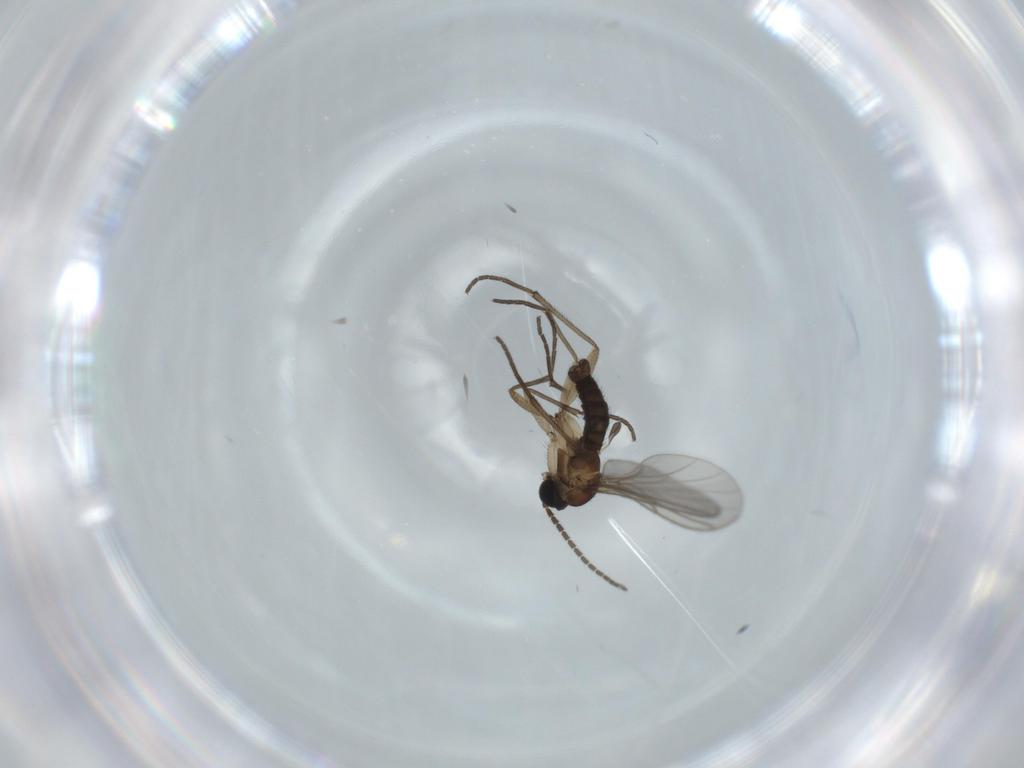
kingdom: Animalia
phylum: Arthropoda
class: Insecta
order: Diptera
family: Sciaridae
